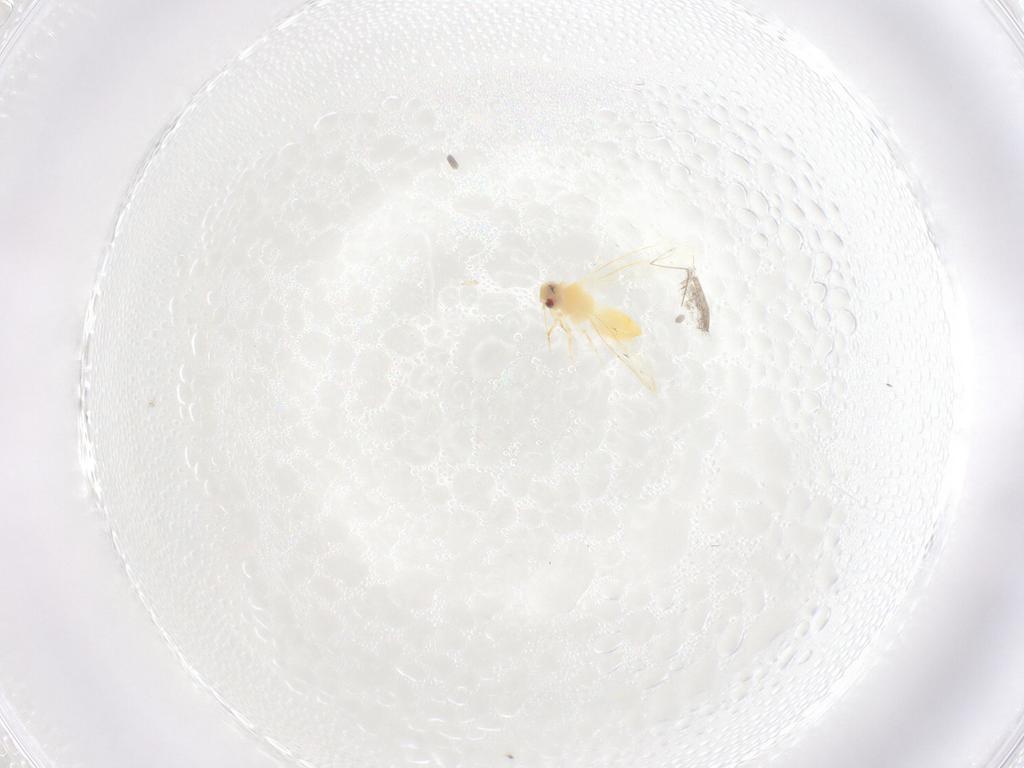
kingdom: Animalia
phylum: Arthropoda
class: Insecta
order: Hemiptera
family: Aleyrodidae
